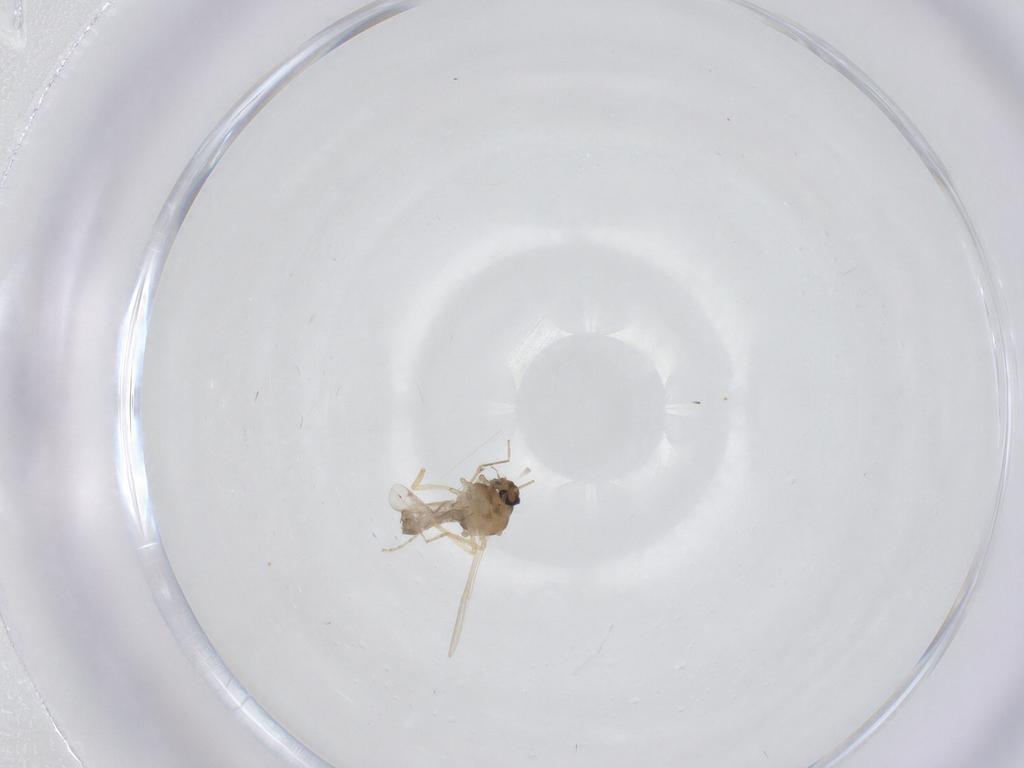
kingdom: Animalia
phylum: Arthropoda
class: Insecta
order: Diptera
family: Ceratopogonidae
